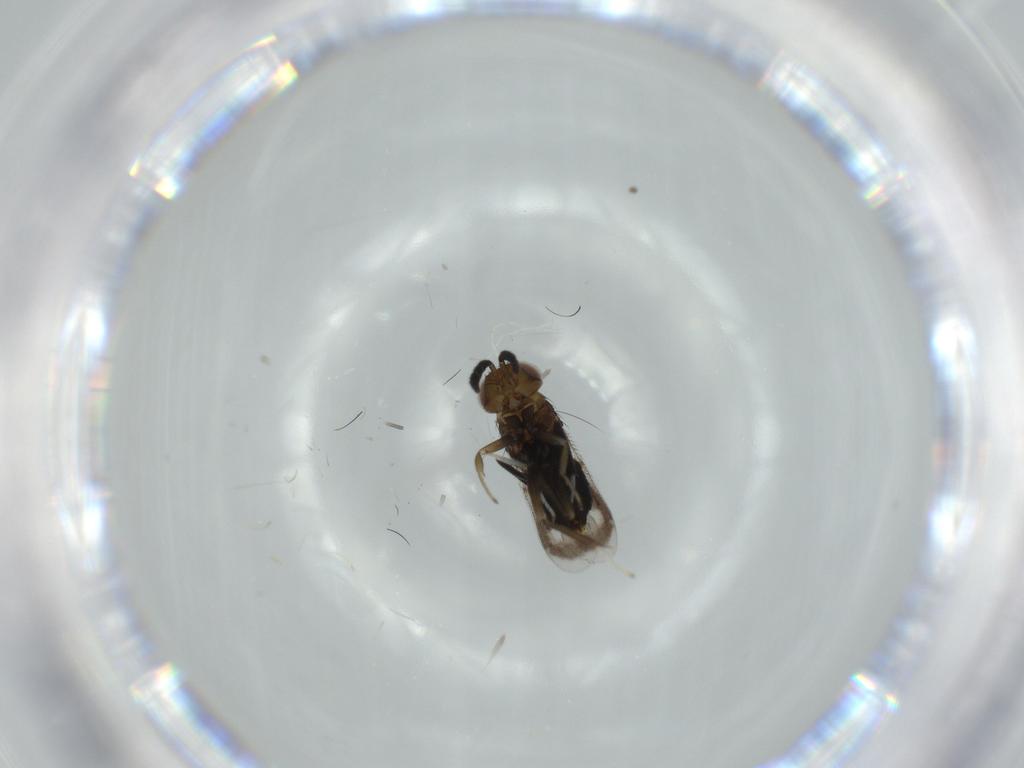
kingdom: Animalia
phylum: Arthropoda
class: Insecta
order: Hymenoptera
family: Aphelinidae
